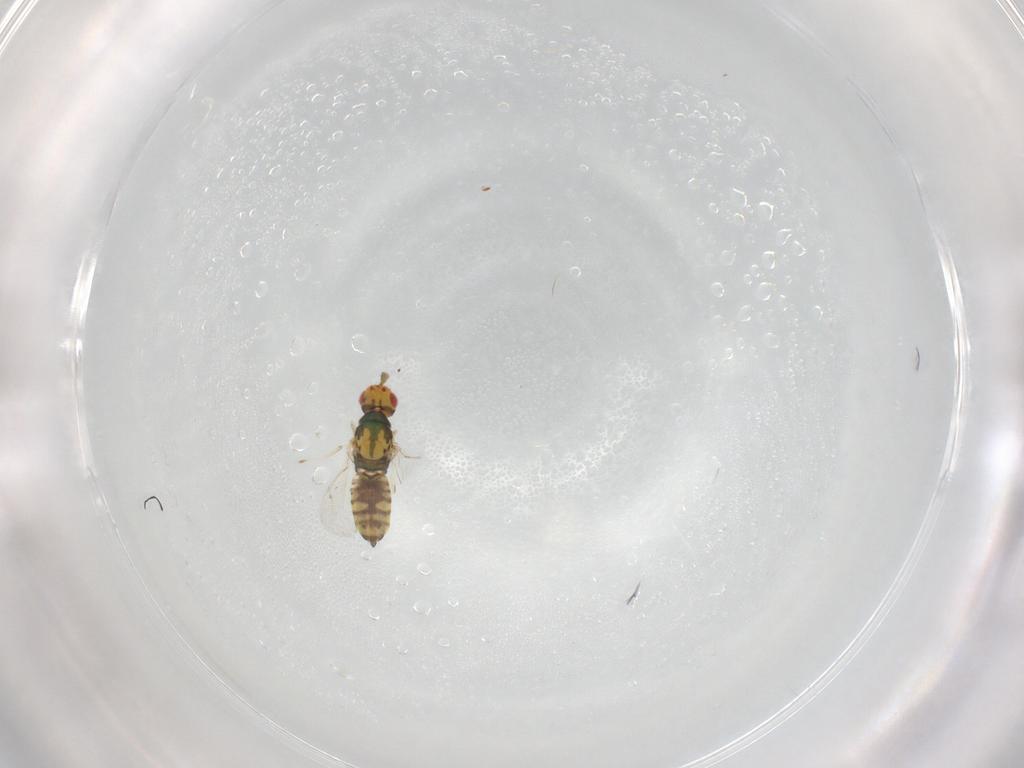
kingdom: Animalia
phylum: Arthropoda
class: Insecta
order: Hymenoptera
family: Eulophidae
